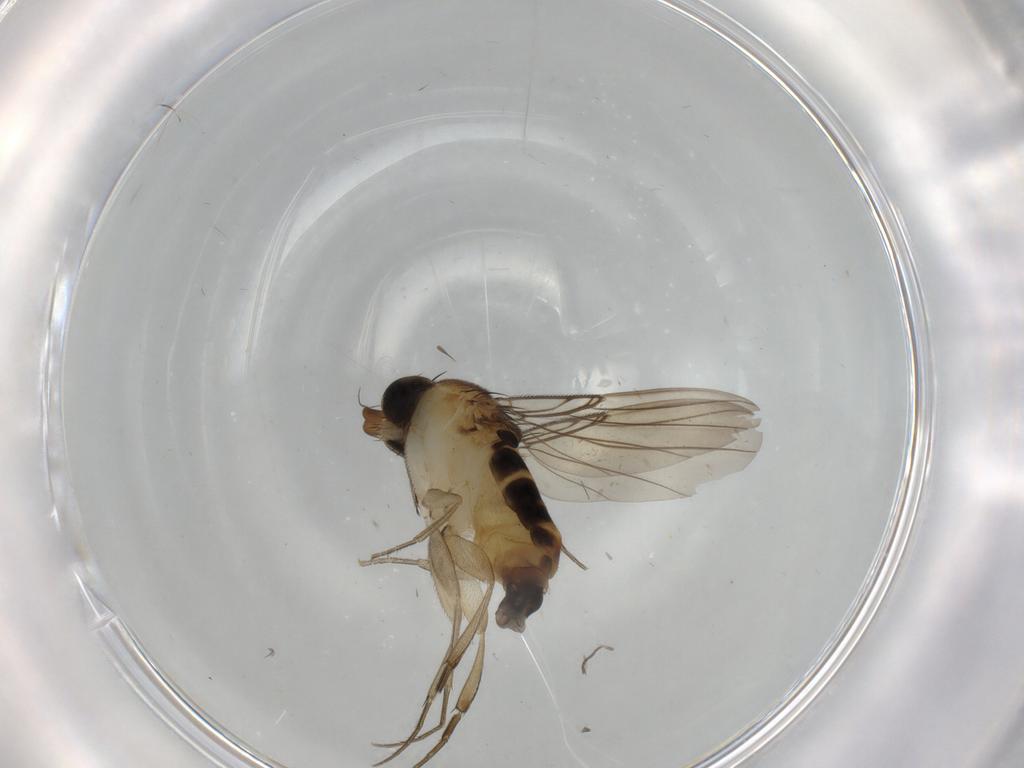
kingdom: Animalia
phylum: Arthropoda
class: Insecta
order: Diptera
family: Phoridae
